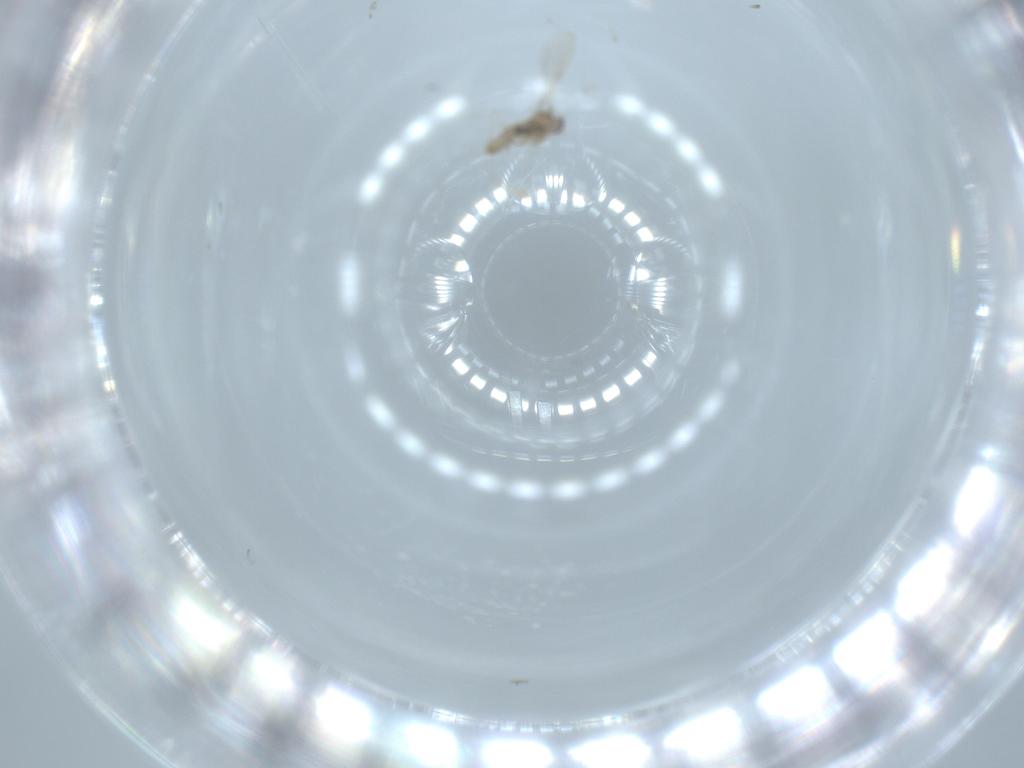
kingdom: Animalia
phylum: Arthropoda
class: Insecta
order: Diptera
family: Cecidomyiidae
